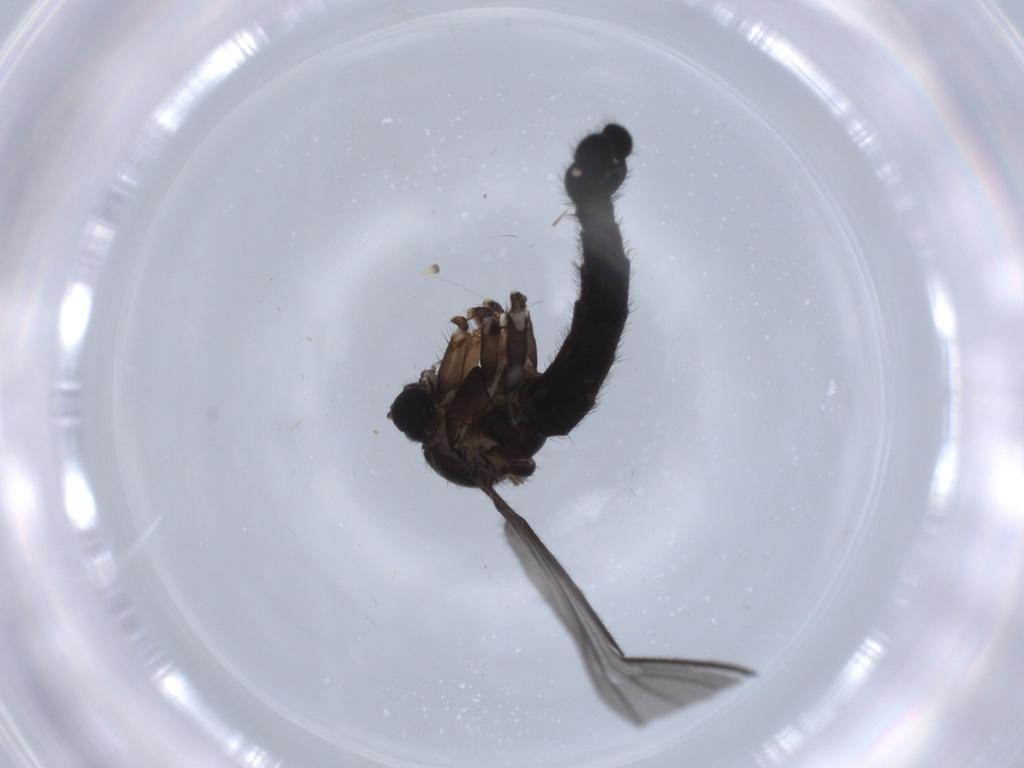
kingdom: Animalia
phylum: Arthropoda
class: Insecta
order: Diptera
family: Sciaridae
